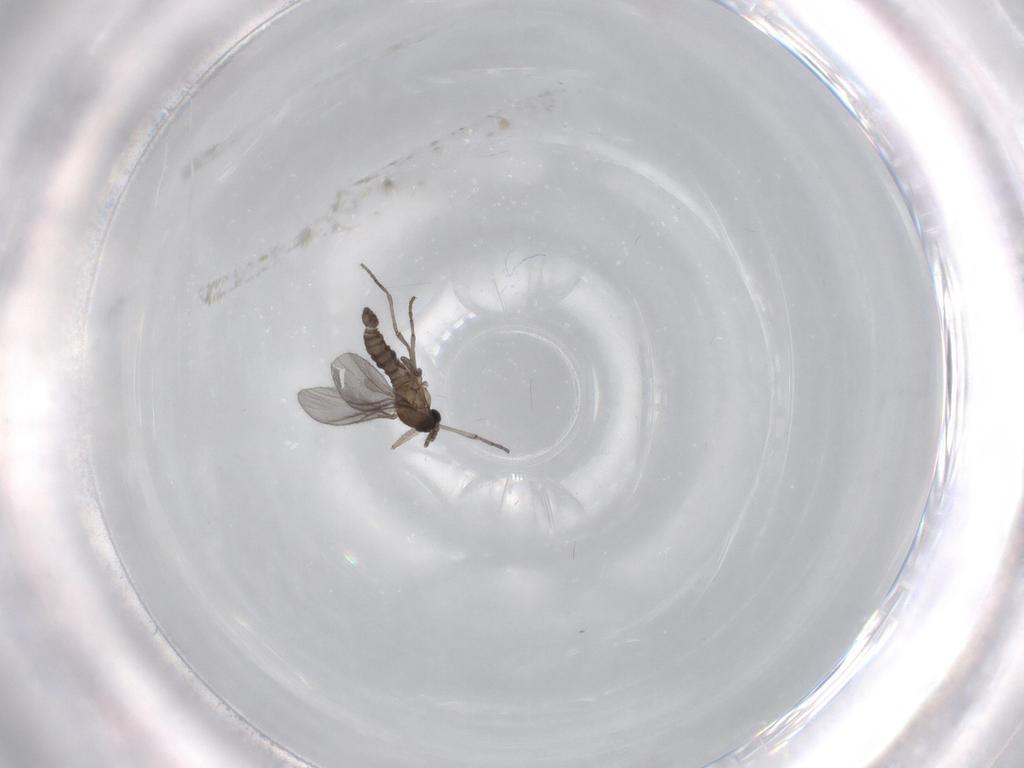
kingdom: Animalia
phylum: Arthropoda
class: Insecta
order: Diptera
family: Sciaridae
